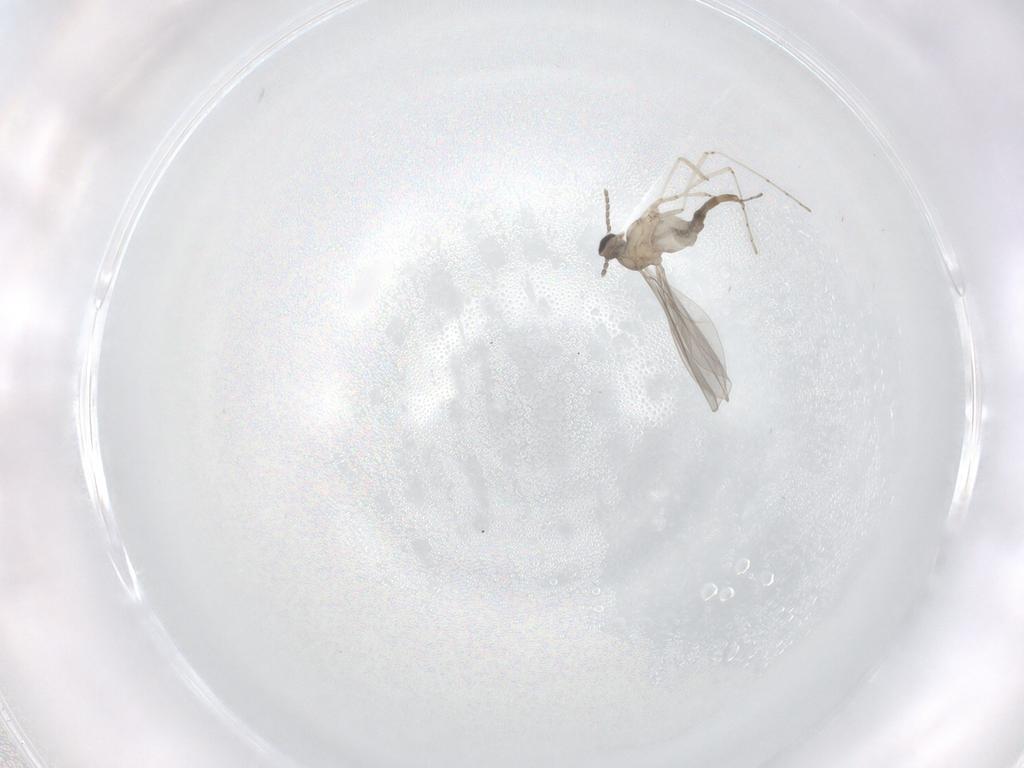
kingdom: Animalia
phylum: Arthropoda
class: Insecta
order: Diptera
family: Cecidomyiidae
